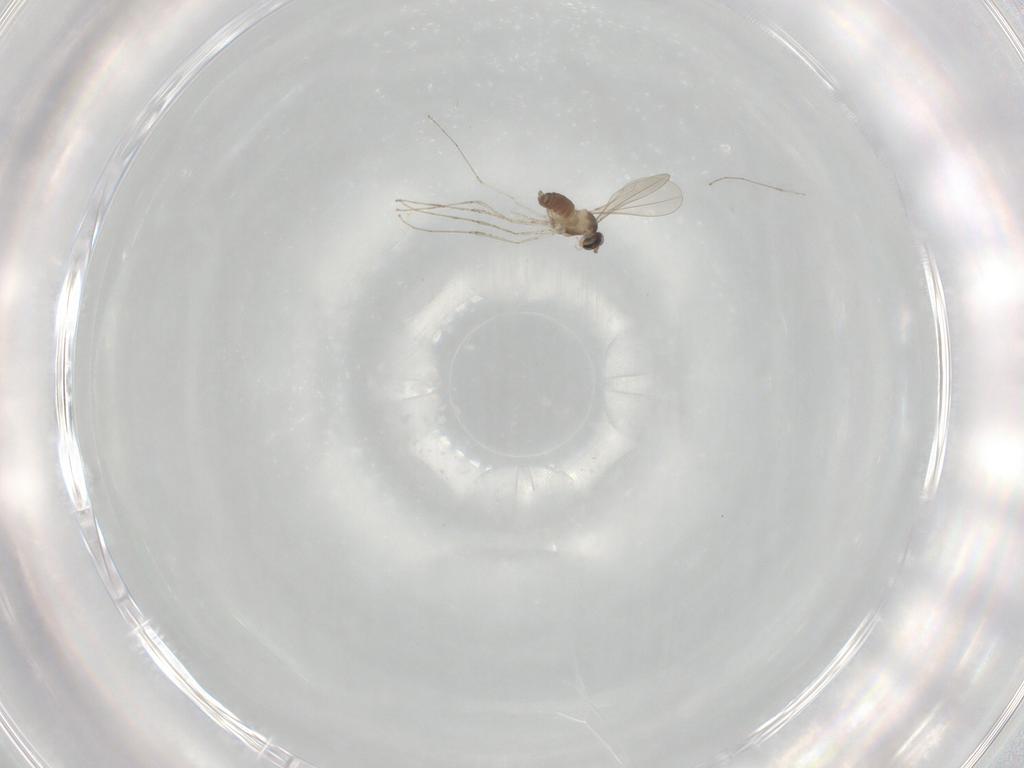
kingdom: Animalia
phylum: Arthropoda
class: Insecta
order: Diptera
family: Cecidomyiidae
